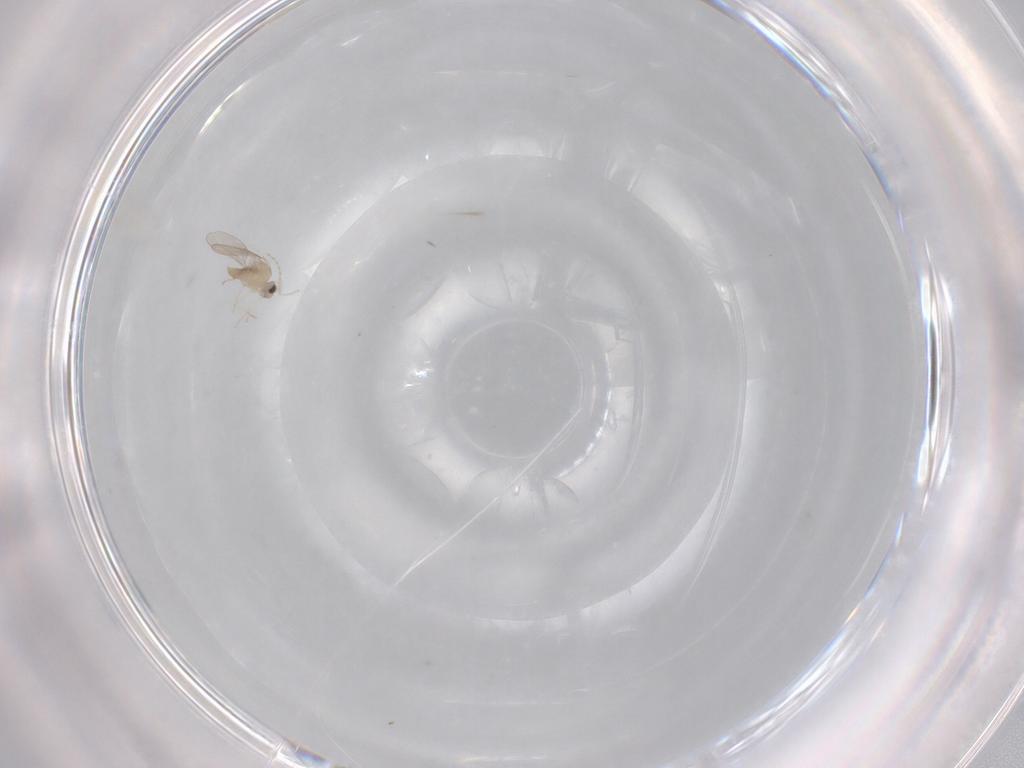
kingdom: Animalia
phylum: Arthropoda
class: Insecta
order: Diptera
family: Cecidomyiidae
